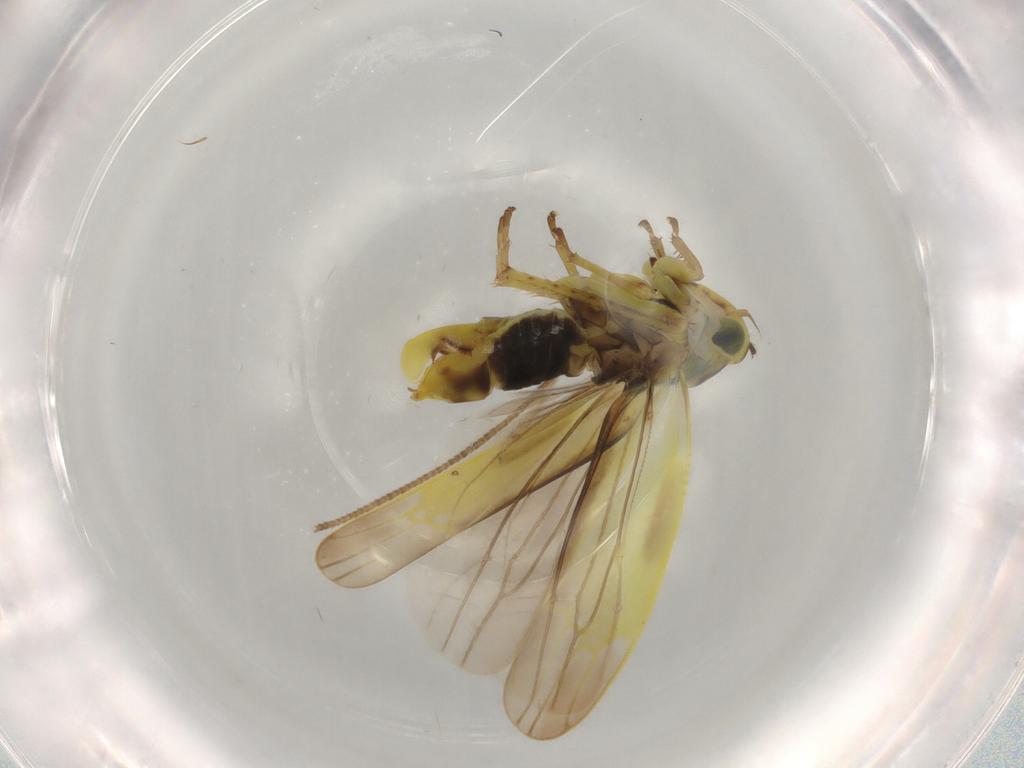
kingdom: Animalia
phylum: Arthropoda
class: Insecta
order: Hemiptera
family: Cicadellidae
